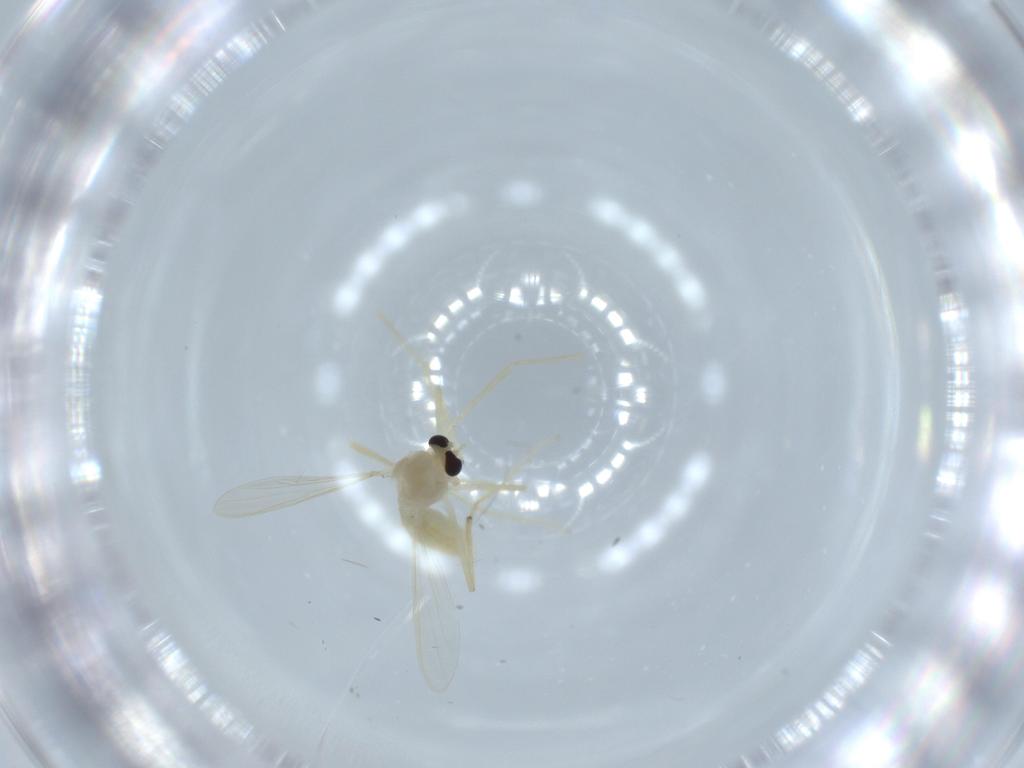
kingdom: Animalia
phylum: Arthropoda
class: Insecta
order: Diptera
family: Chironomidae
